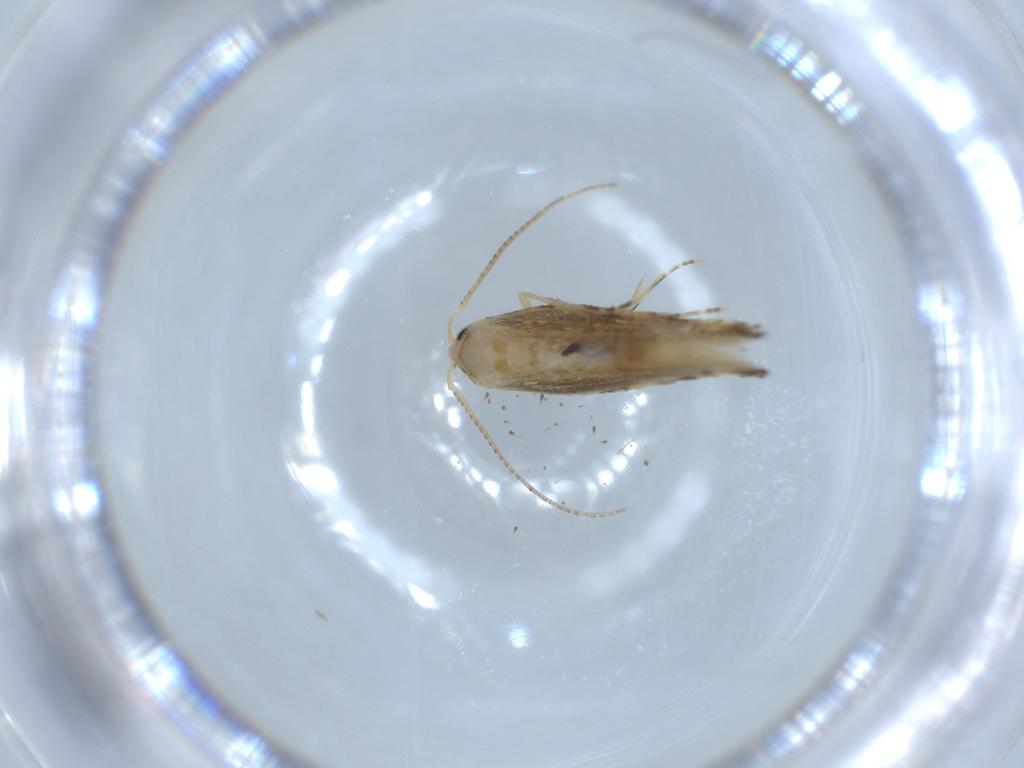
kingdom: Animalia
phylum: Arthropoda
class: Insecta
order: Lepidoptera
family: Bucculatricidae
